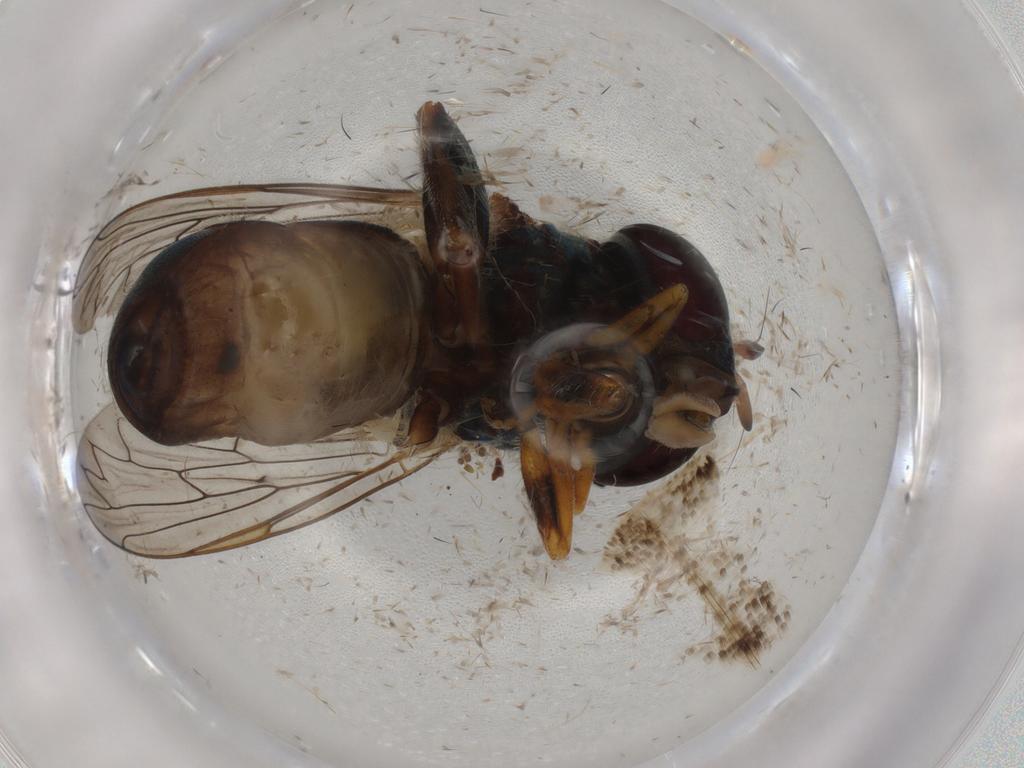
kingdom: Animalia
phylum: Arthropoda
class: Insecta
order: Diptera
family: Syrphidae
